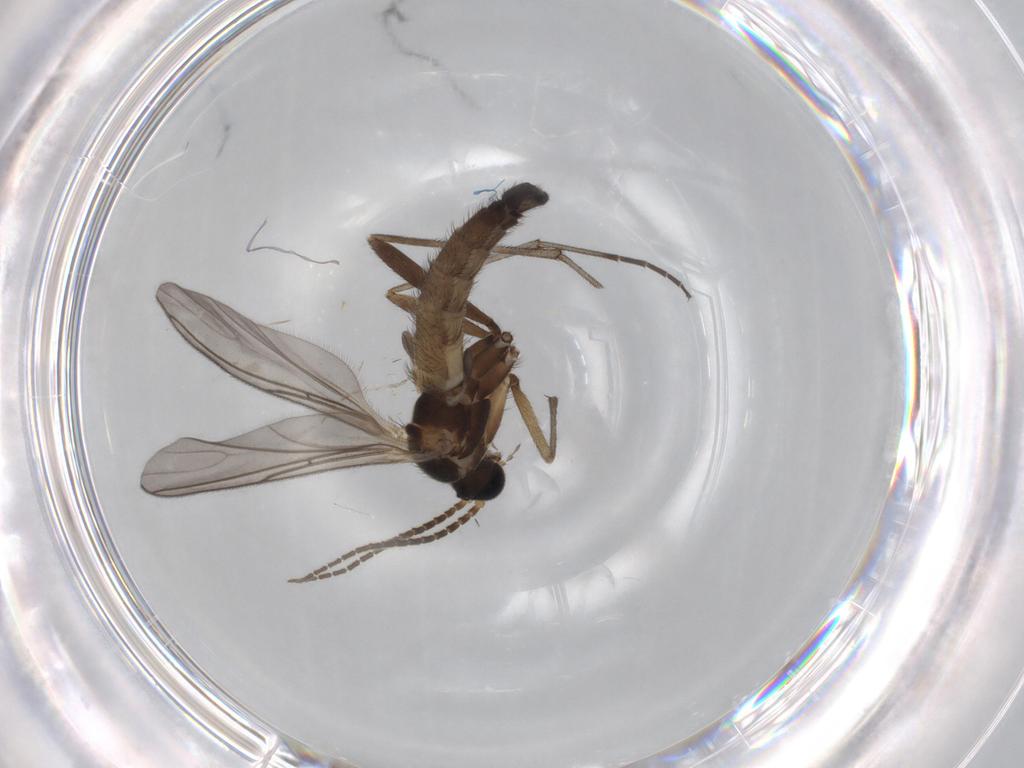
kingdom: Animalia
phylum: Arthropoda
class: Insecta
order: Diptera
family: Sciaridae
